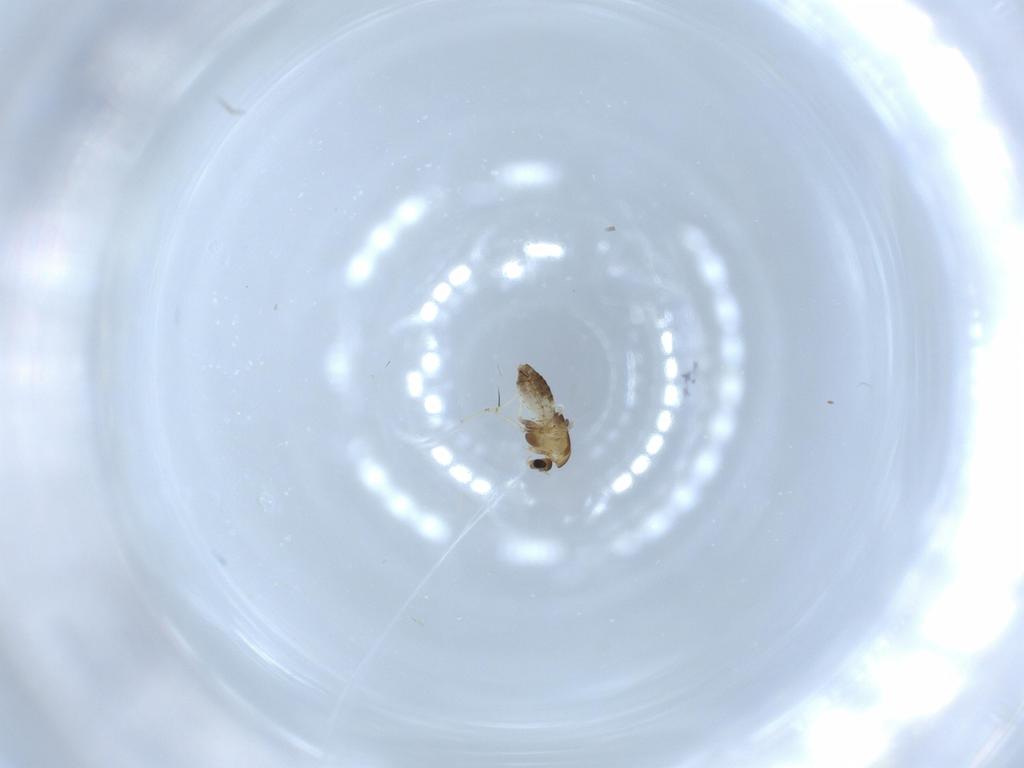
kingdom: Animalia
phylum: Arthropoda
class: Insecta
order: Diptera
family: Chironomidae
